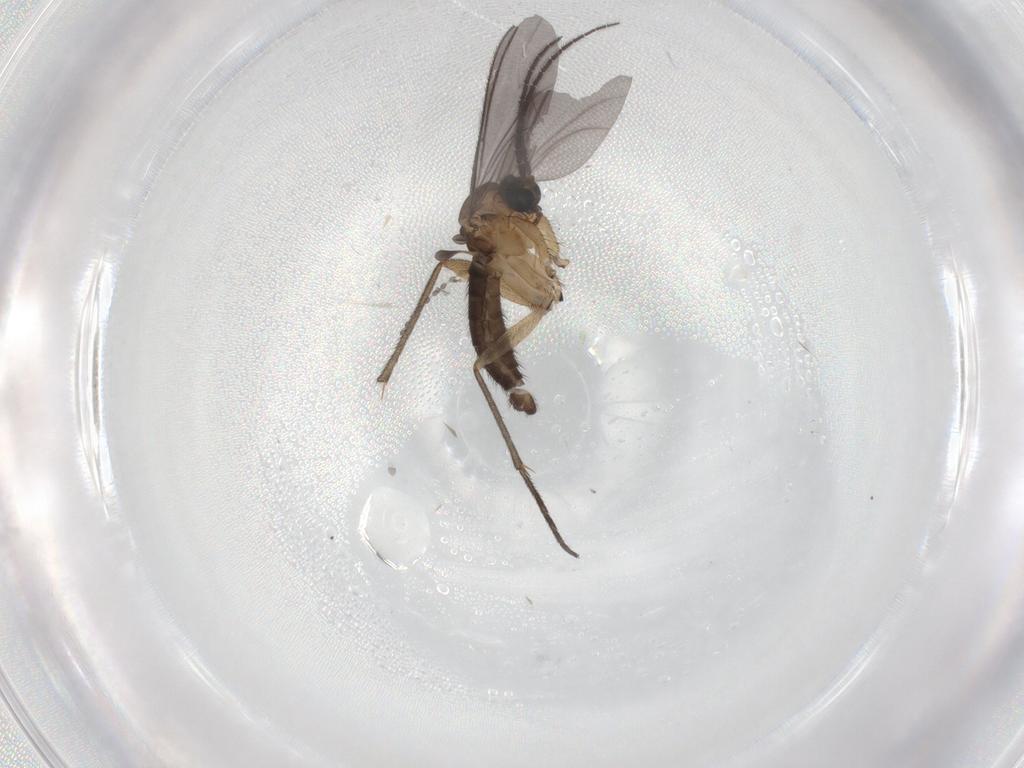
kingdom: Animalia
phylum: Arthropoda
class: Insecta
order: Diptera
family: Sciaridae
